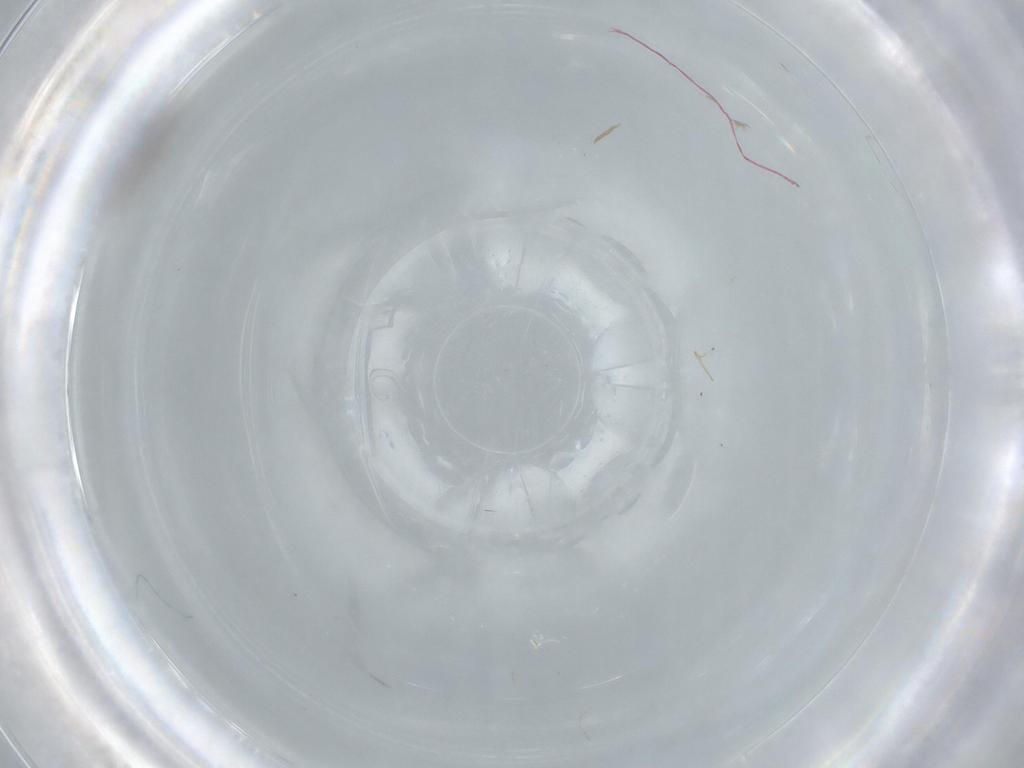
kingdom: Animalia
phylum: Arthropoda
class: Insecta
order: Thysanoptera
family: Thripidae
